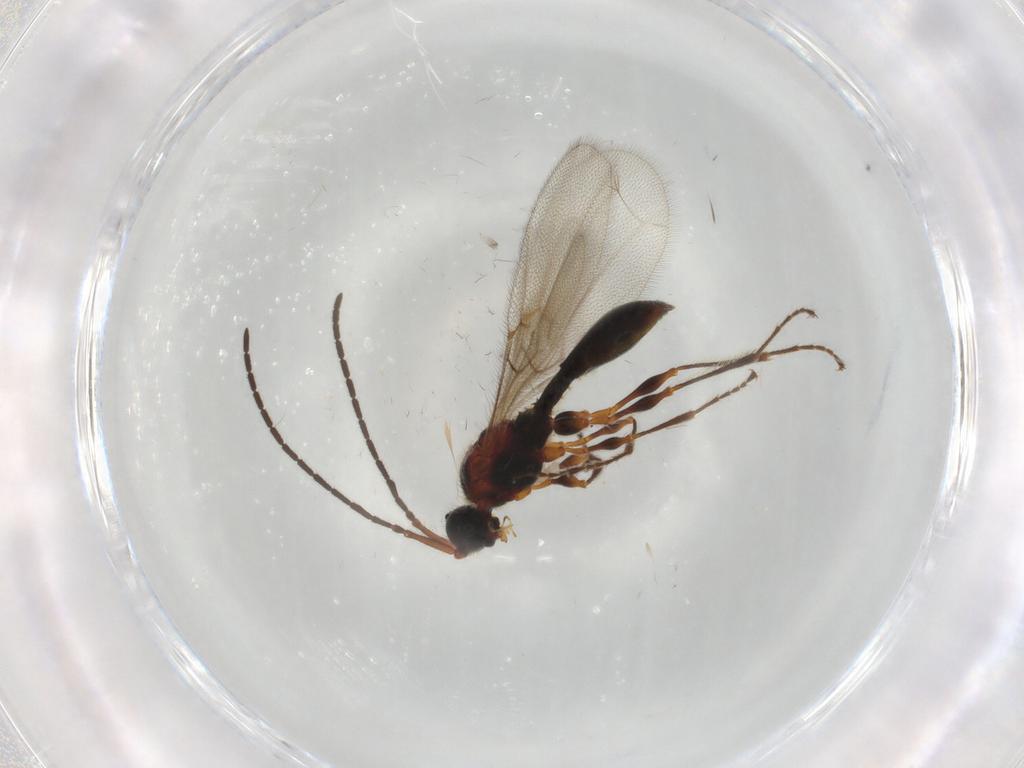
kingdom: Animalia
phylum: Arthropoda
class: Insecta
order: Hymenoptera
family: Diapriidae
